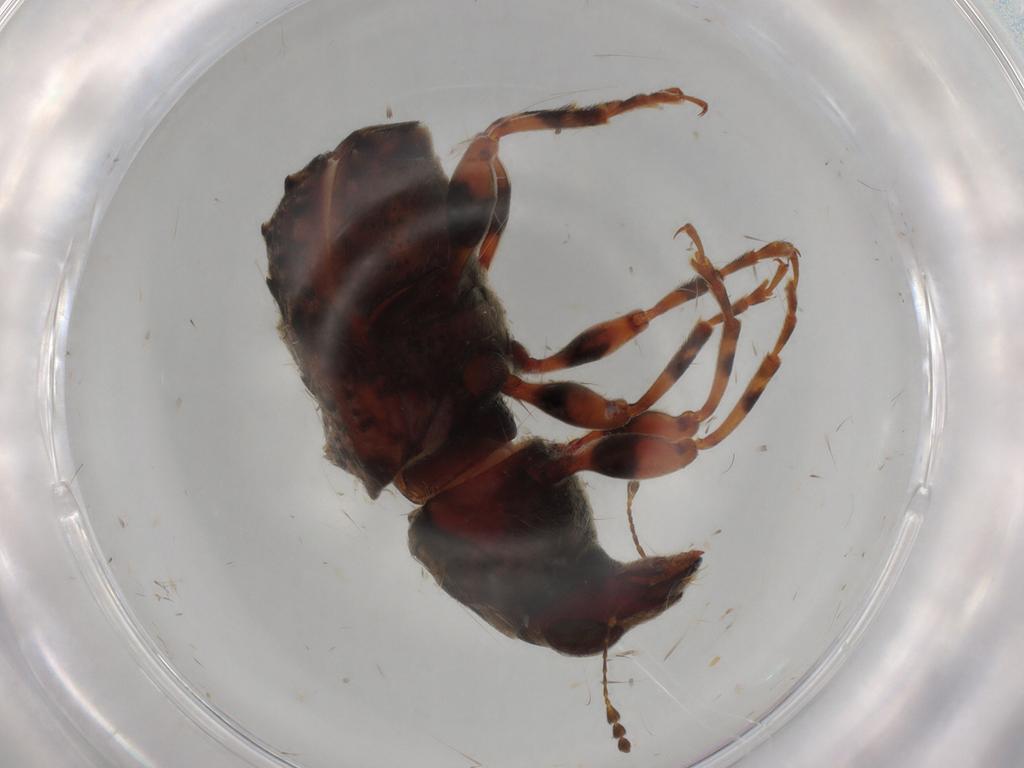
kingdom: Animalia
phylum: Arthropoda
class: Insecta
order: Coleoptera
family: Anthribidae
